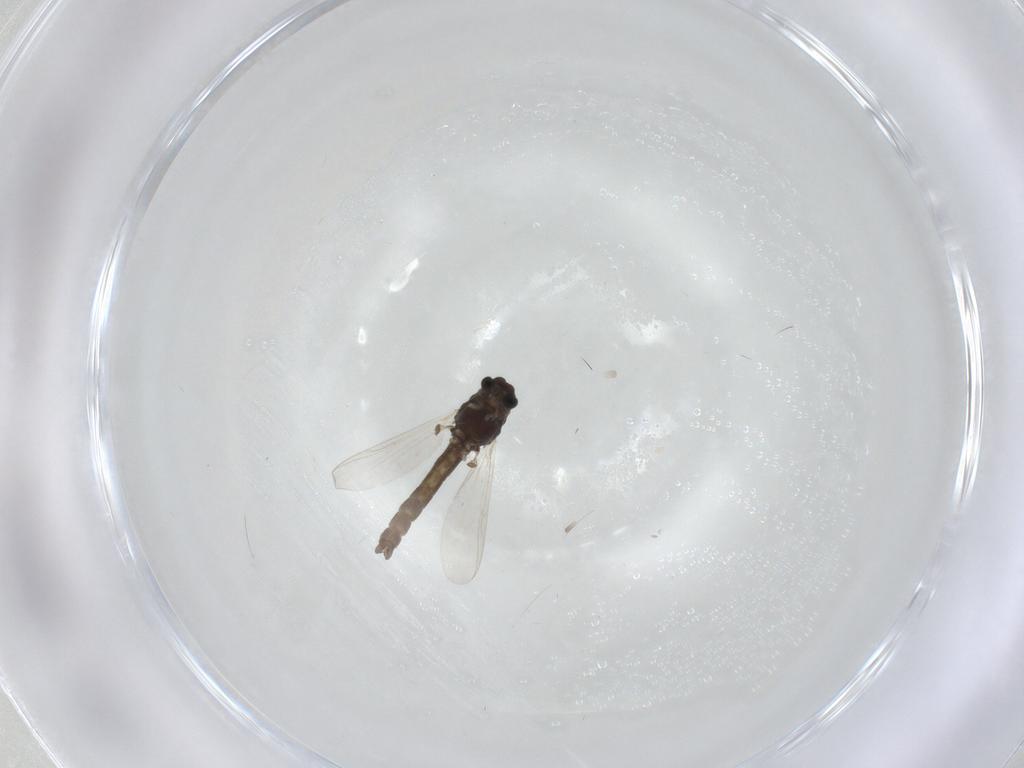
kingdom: Animalia
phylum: Arthropoda
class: Insecta
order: Diptera
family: Chironomidae
